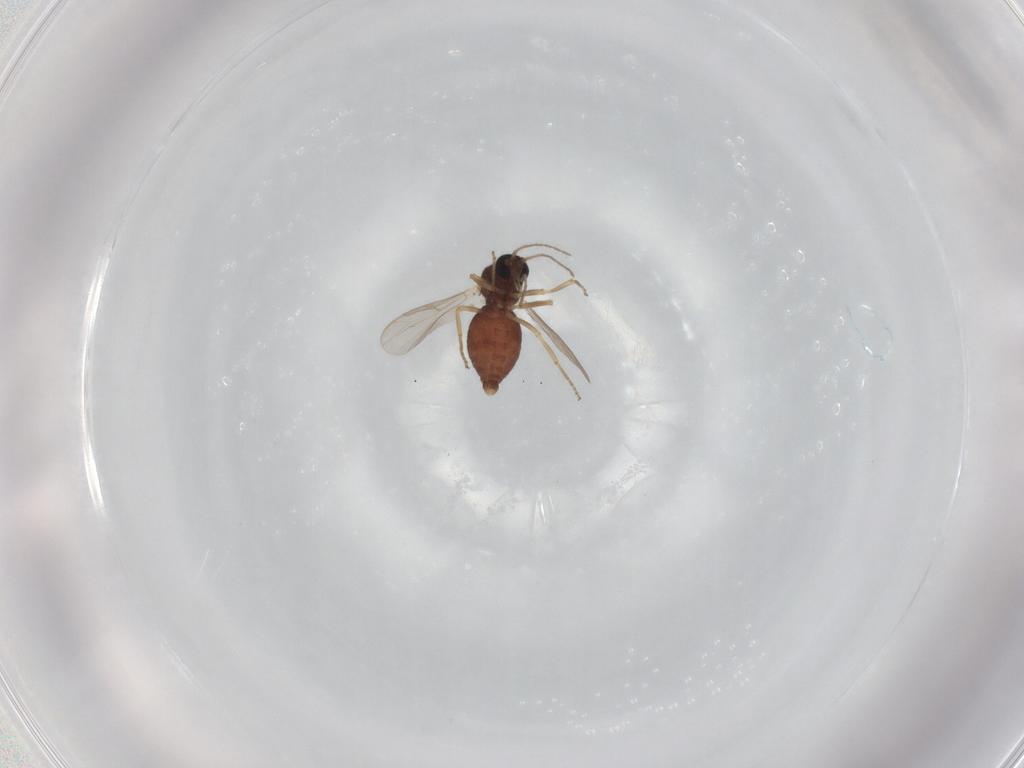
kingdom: Animalia
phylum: Arthropoda
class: Insecta
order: Diptera
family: Ceratopogonidae
